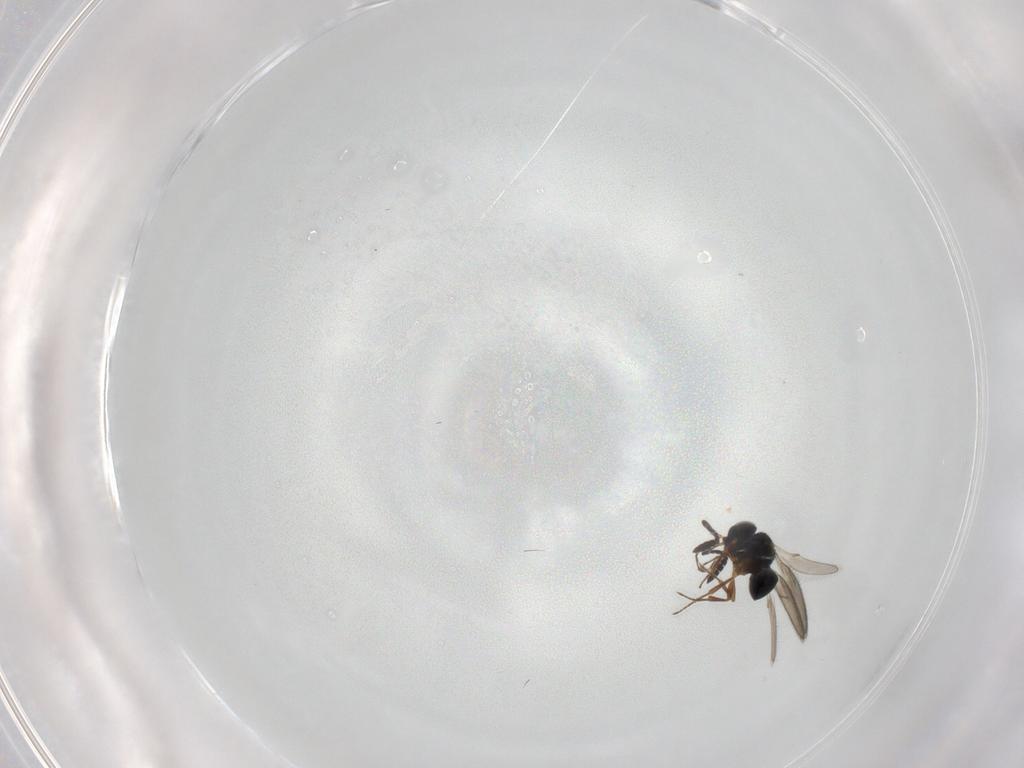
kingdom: Animalia
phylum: Arthropoda
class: Insecta
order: Hymenoptera
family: Scelionidae
